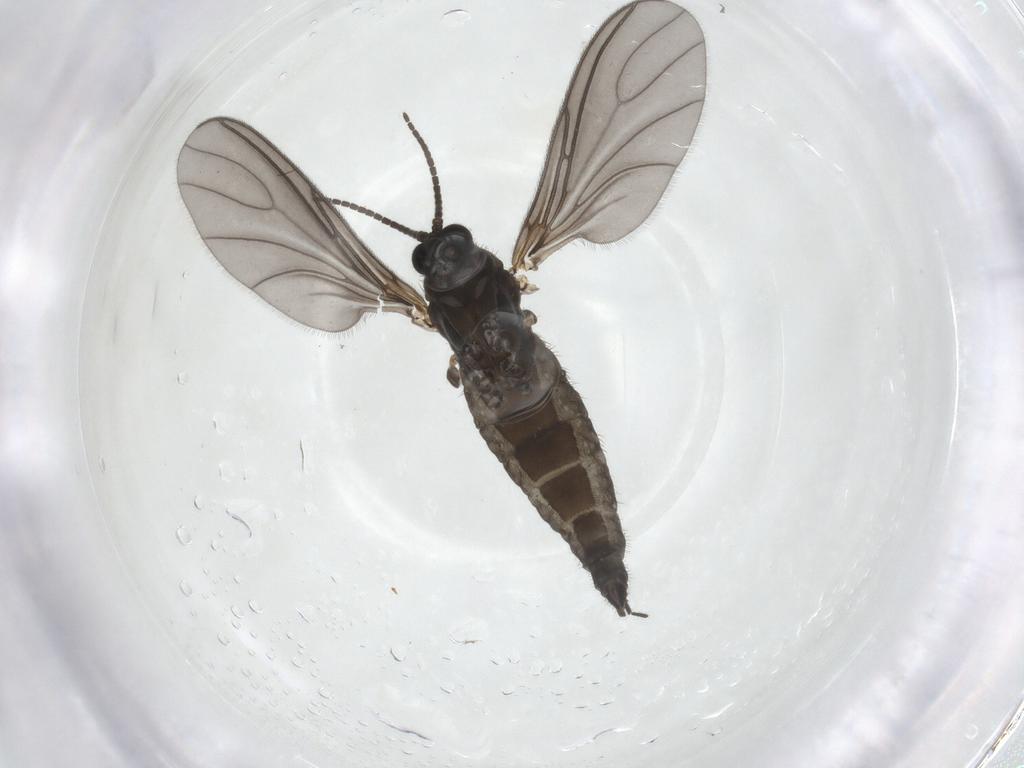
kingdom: Animalia
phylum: Arthropoda
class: Insecta
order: Diptera
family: Sciaridae
